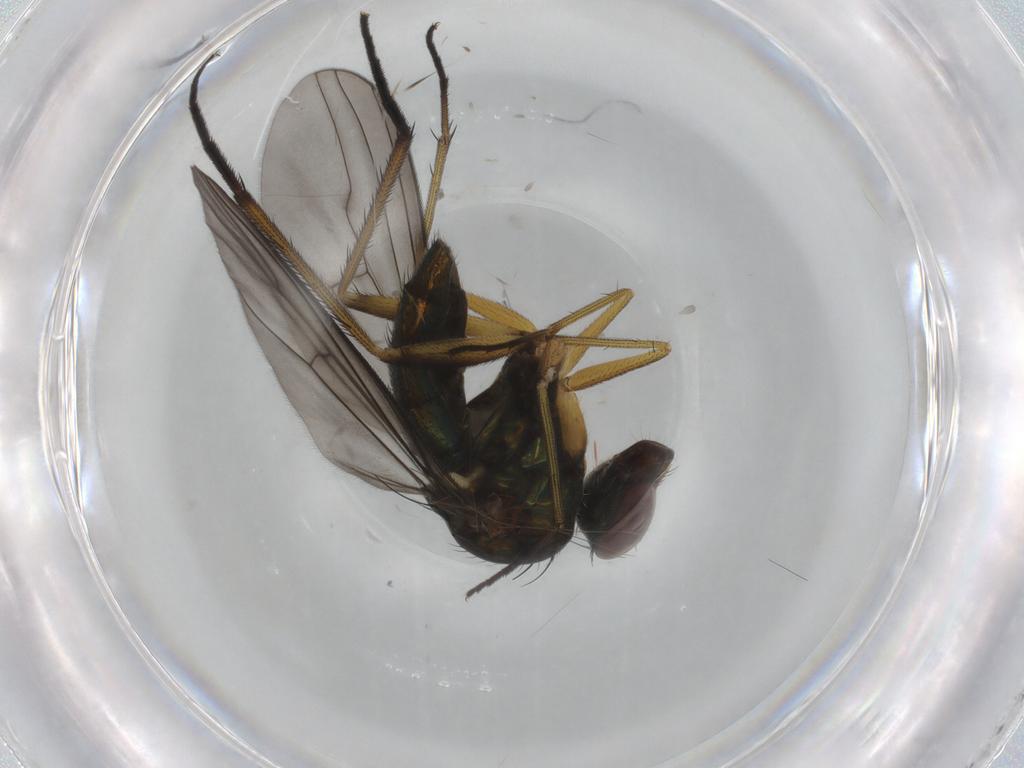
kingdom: Animalia
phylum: Arthropoda
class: Insecta
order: Diptera
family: Dolichopodidae
